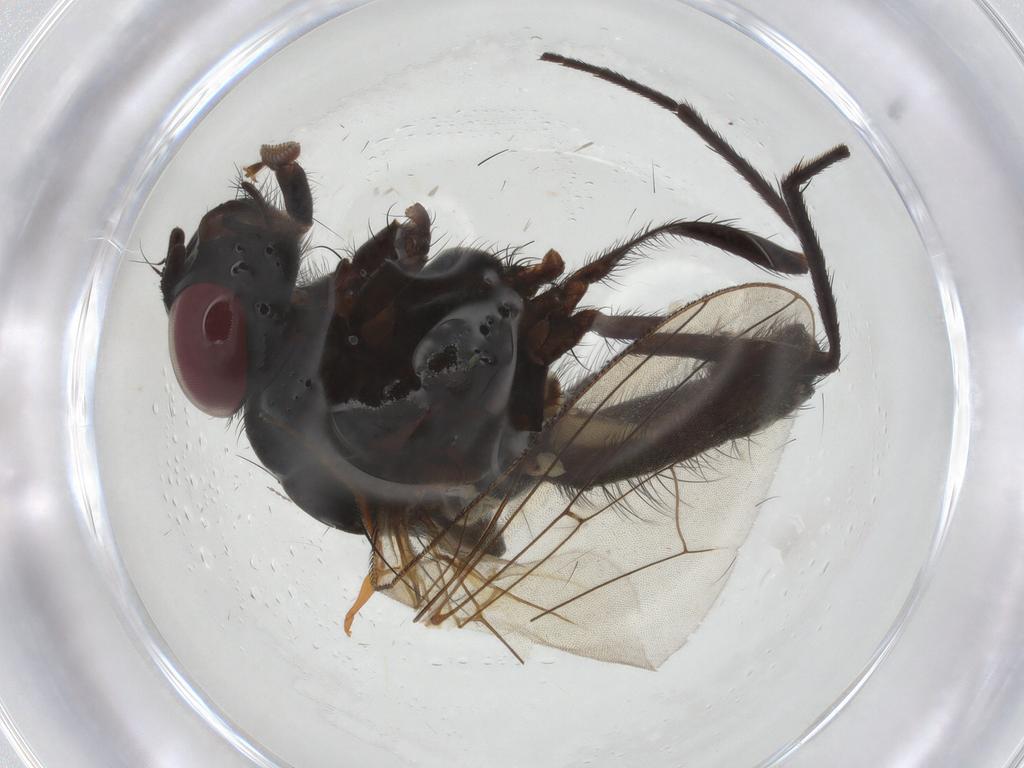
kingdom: Animalia
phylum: Arthropoda
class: Insecta
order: Diptera
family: Anthomyiidae
